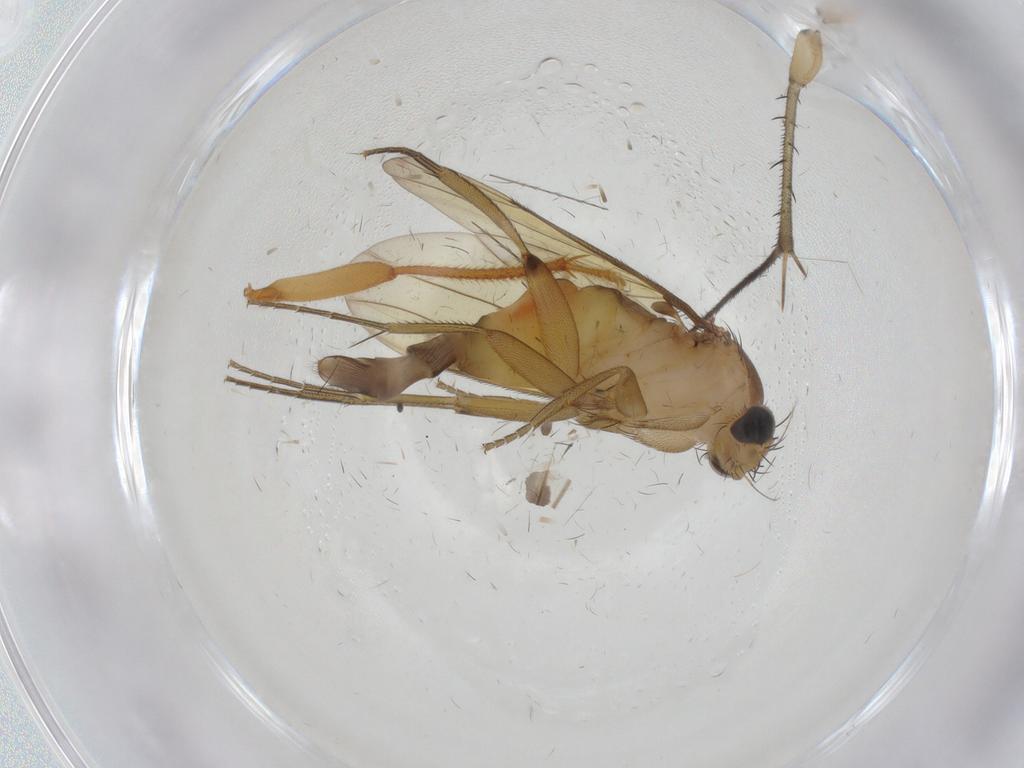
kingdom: Animalia
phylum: Arthropoda
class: Insecta
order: Diptera
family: Phoridae
